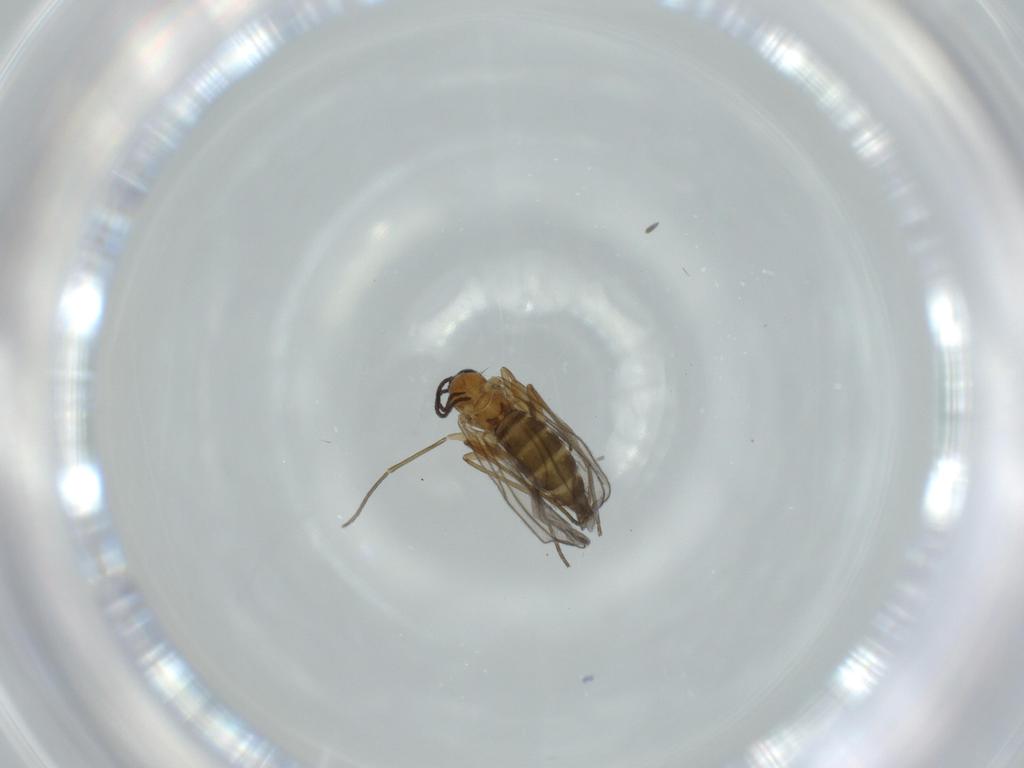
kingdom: Animalia
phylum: Arthropoda
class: Insecta
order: Diptera
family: Sciaridae
